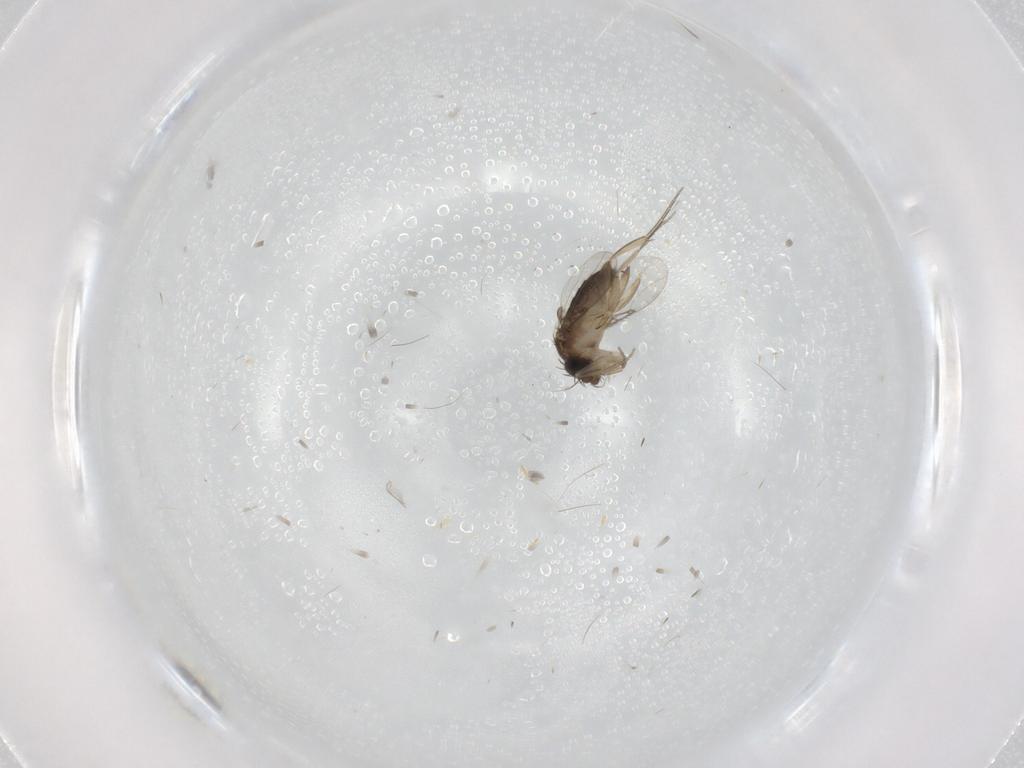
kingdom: Animalia
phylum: Arthropoda
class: Insecta
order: Diptera
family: Phoridae
